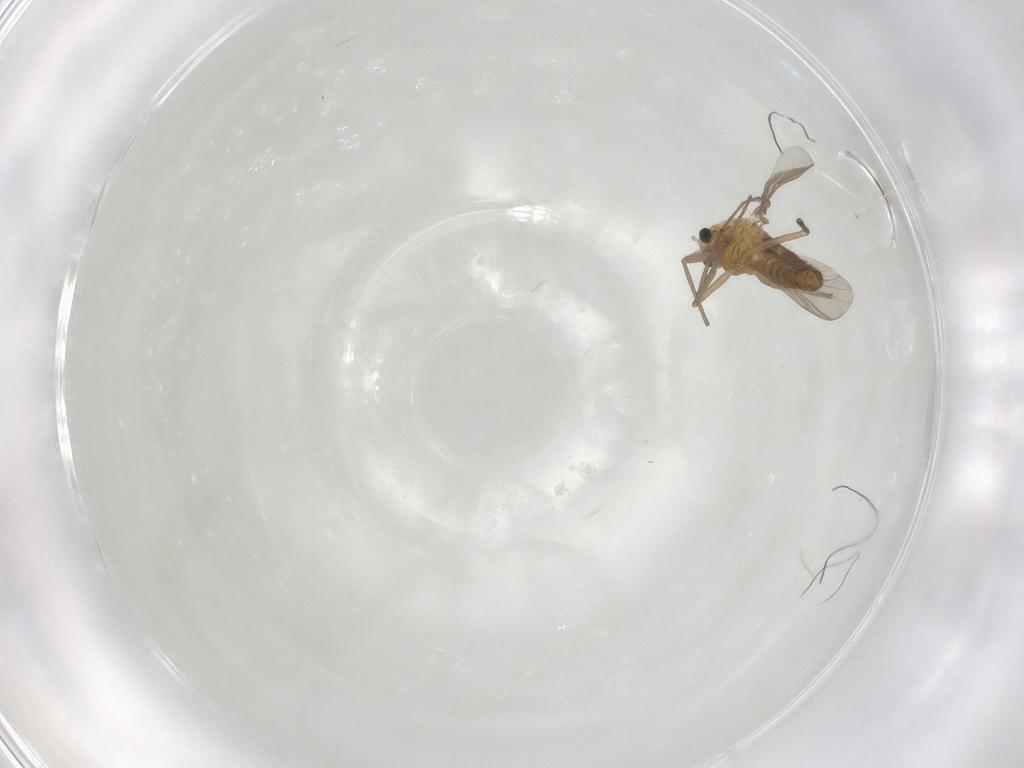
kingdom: Animalia
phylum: Arthropoda
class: Insecta
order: Diptera
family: Chironomidae
